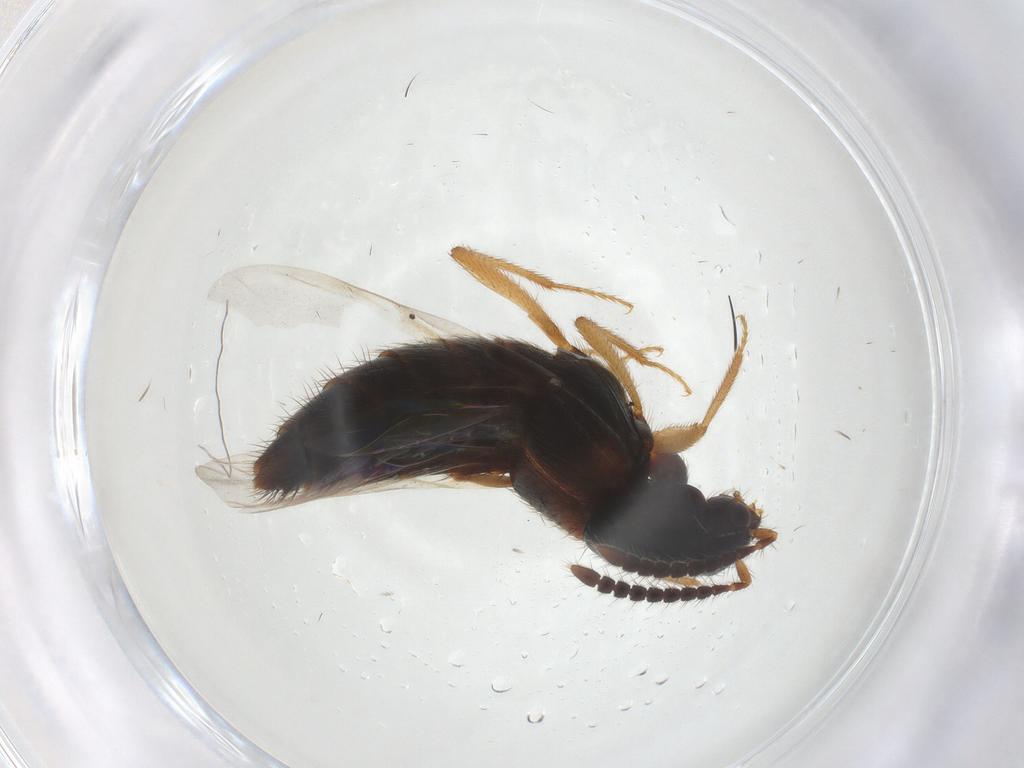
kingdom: Animalia
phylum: Arthropoda
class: Insecta
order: Coleoptera
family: Staphylinidae
